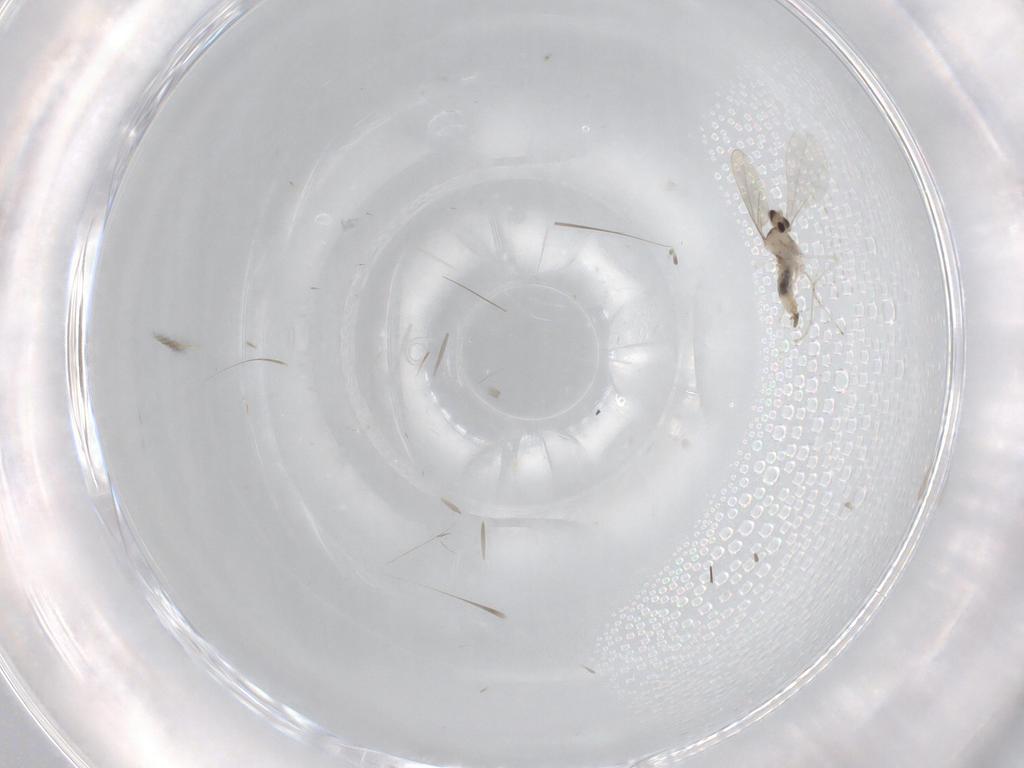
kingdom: Animalia
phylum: Arthropoda
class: Insecta
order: Diptera
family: Cecidomyiidae
